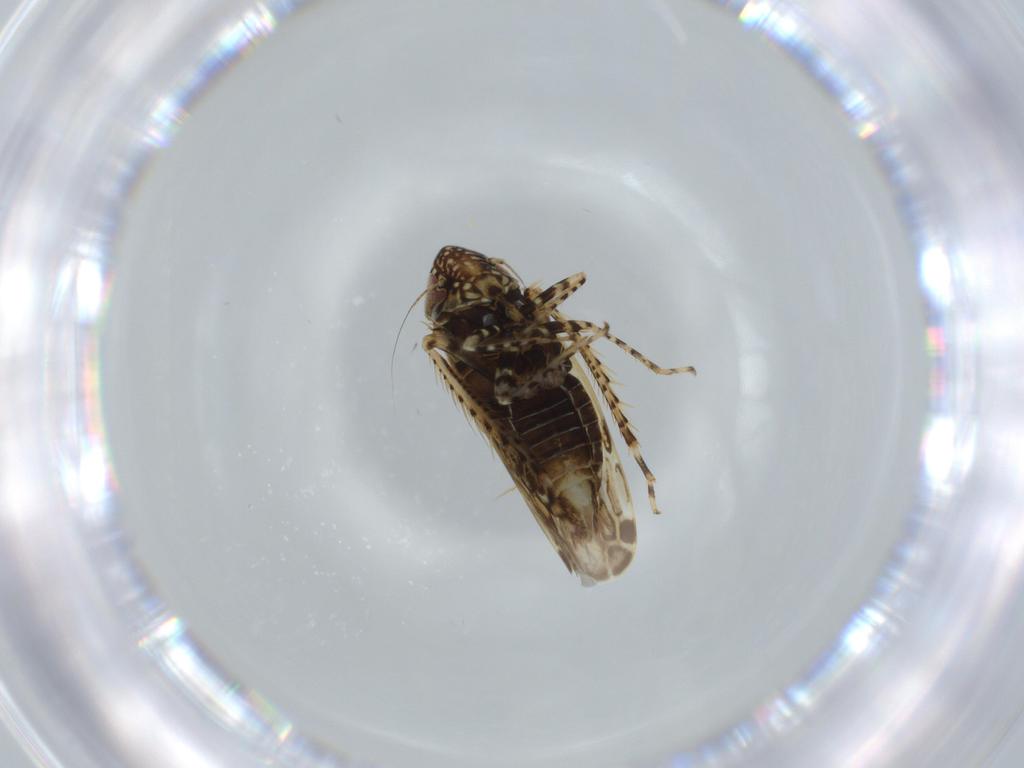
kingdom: Animalia
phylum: Arthropoda
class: Insecta
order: Hemiptera
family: Cicadellidae
